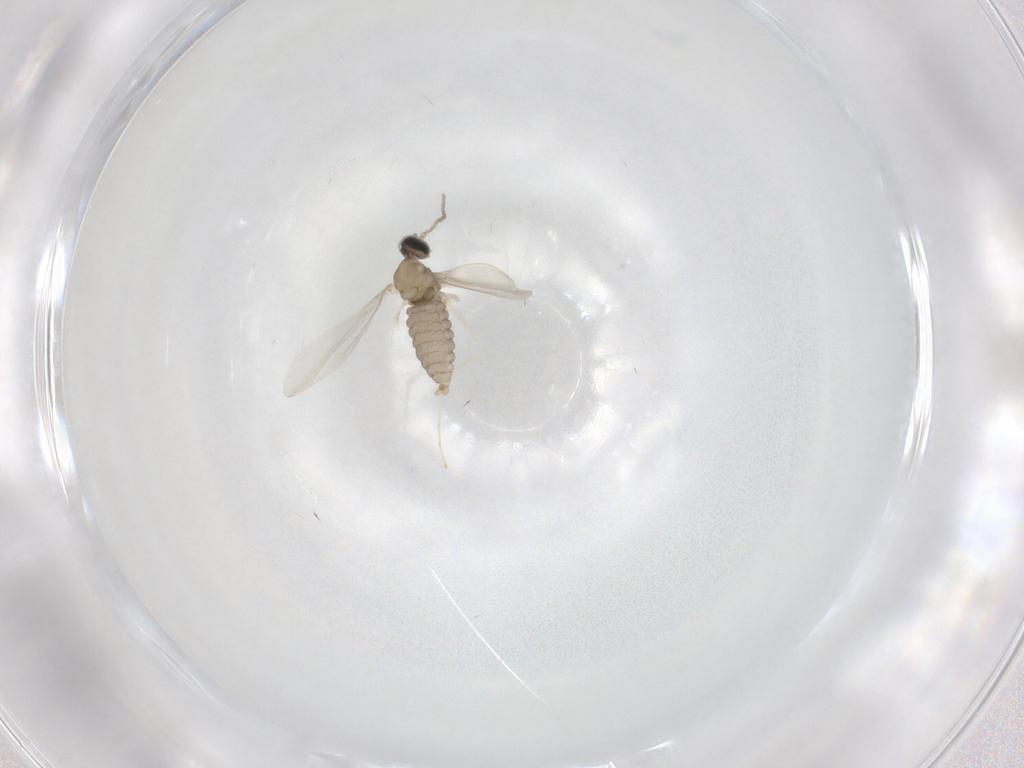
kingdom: Animalia
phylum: Arthropoda
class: Insecta
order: Diptera
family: Cecidomyiidae
